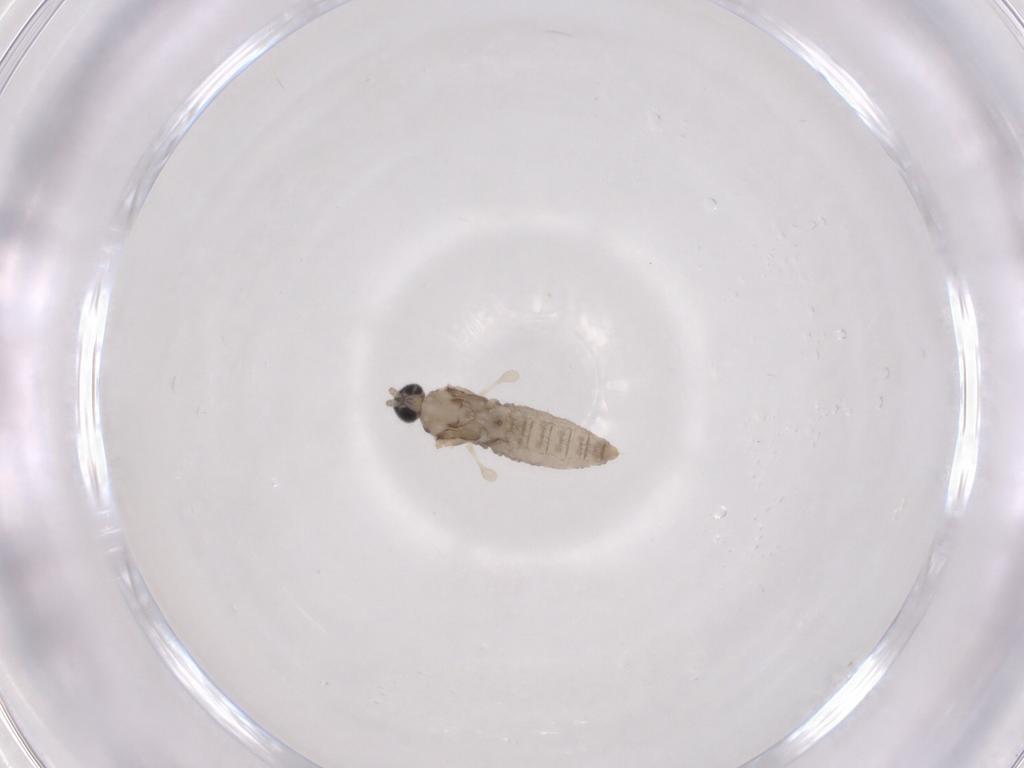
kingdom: Animalia
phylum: Arthropoda
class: Insecta
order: Diptera
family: Cecidomyiidae
